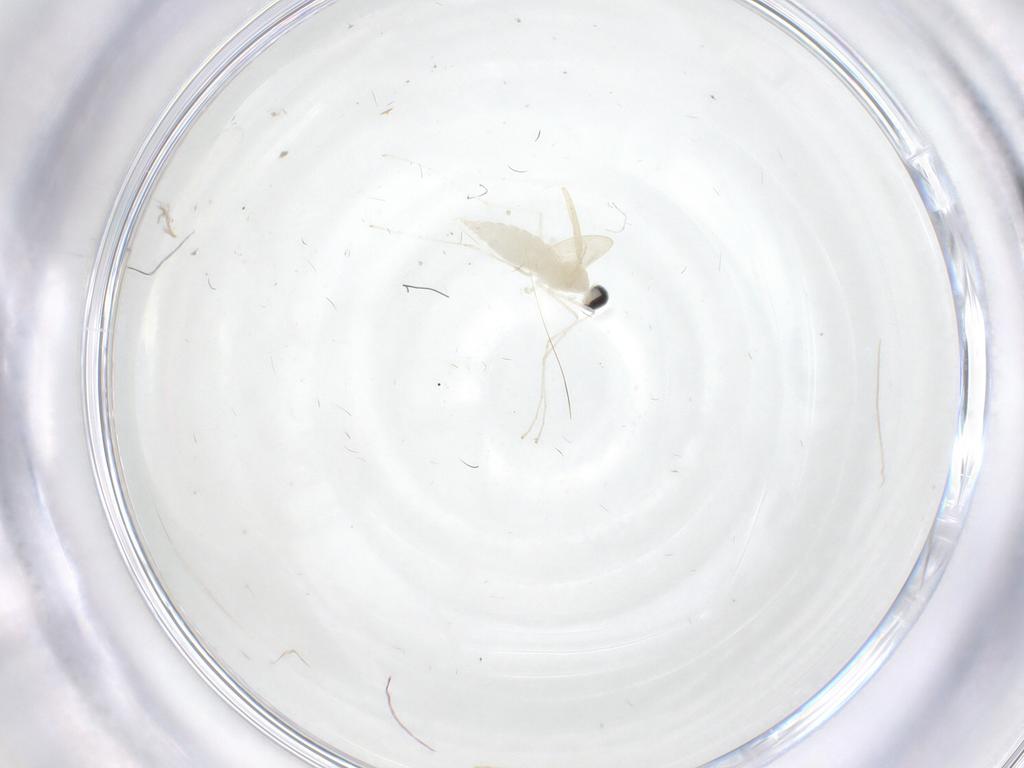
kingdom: Animalia
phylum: Arthropoda
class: Insecta
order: Diptera
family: Cecidomyiidae
